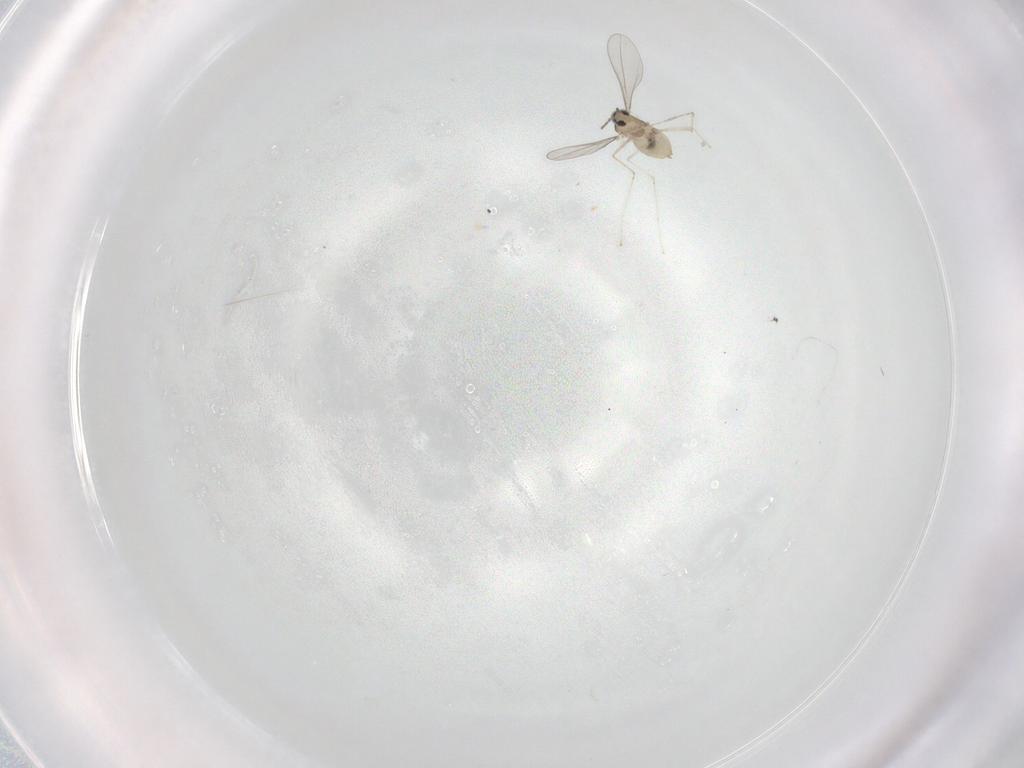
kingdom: Animalia
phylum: Arthropoda
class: Insecta
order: Diptera
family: Cecidomyiidae
